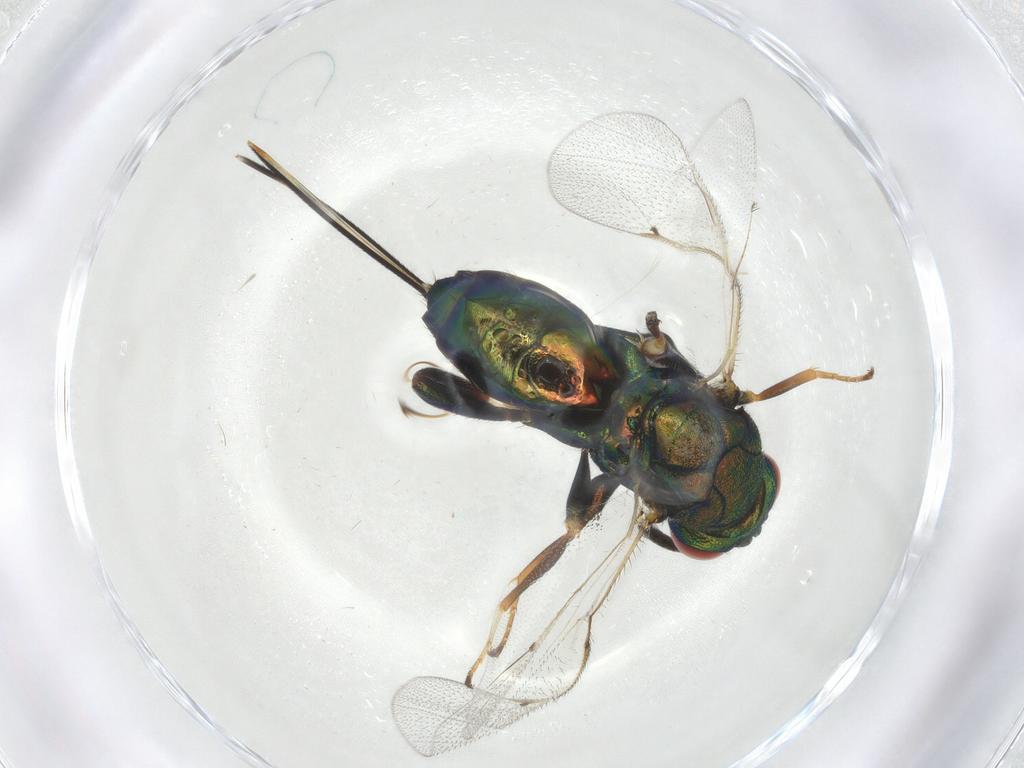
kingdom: Animalia
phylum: Arthropoda
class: Insecta
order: Hymenoptera
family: Torymidae
